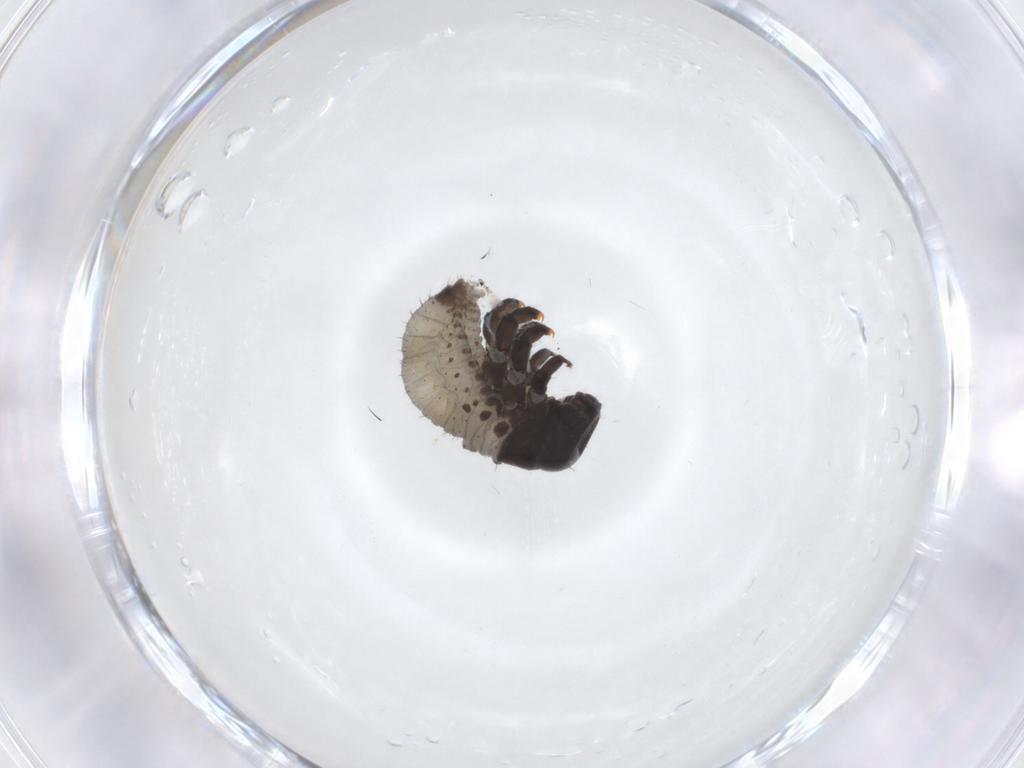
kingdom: Animalia
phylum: Arthropoda
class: Insecta
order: Coleoptera
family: Chrysomelidae
